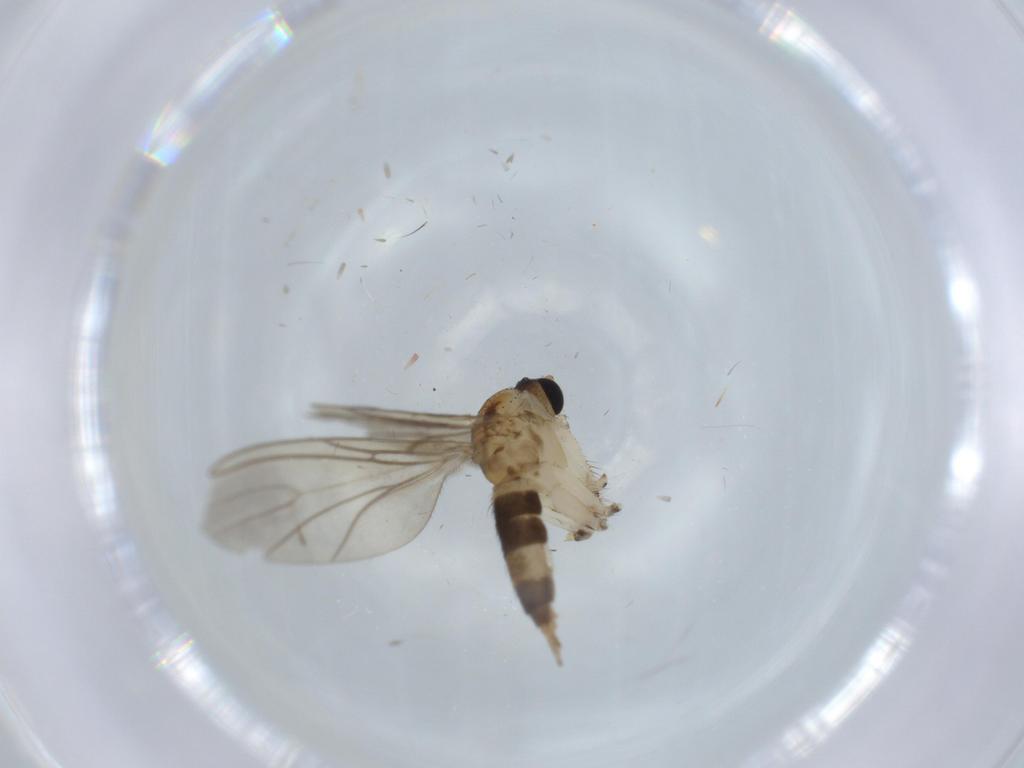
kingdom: Animalia
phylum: Arthropoda
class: Insecta
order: Diptera
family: Sciaridae
